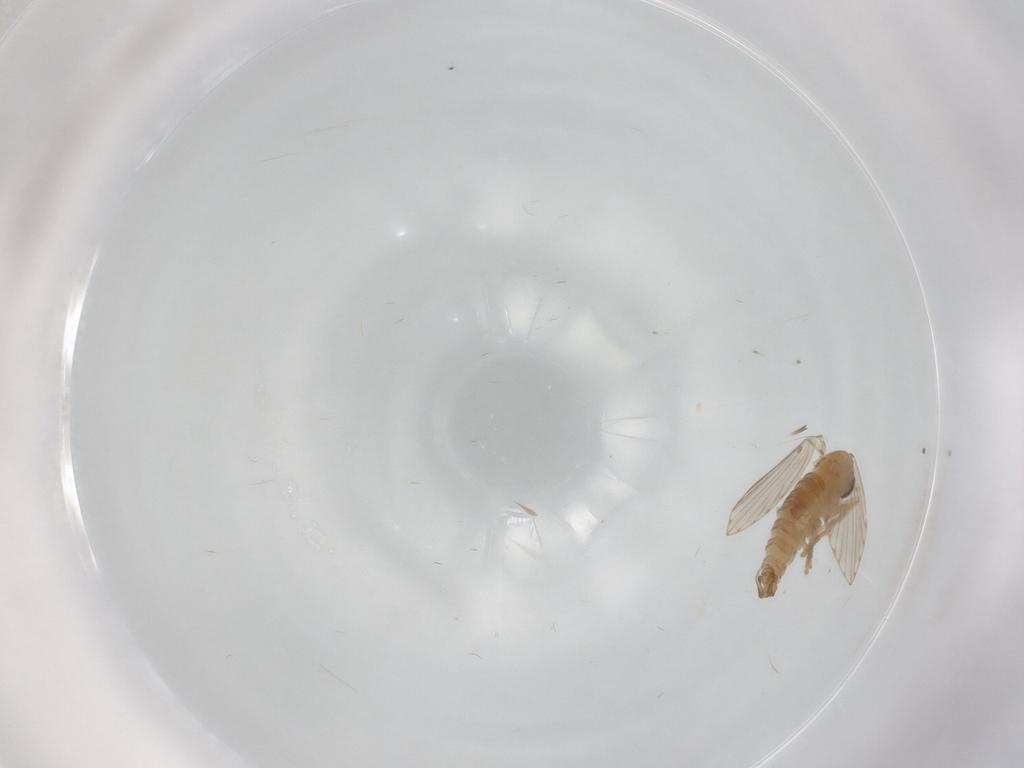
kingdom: Animalia
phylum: Arthropoda
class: Insecta
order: Diptera
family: Psychodidae
